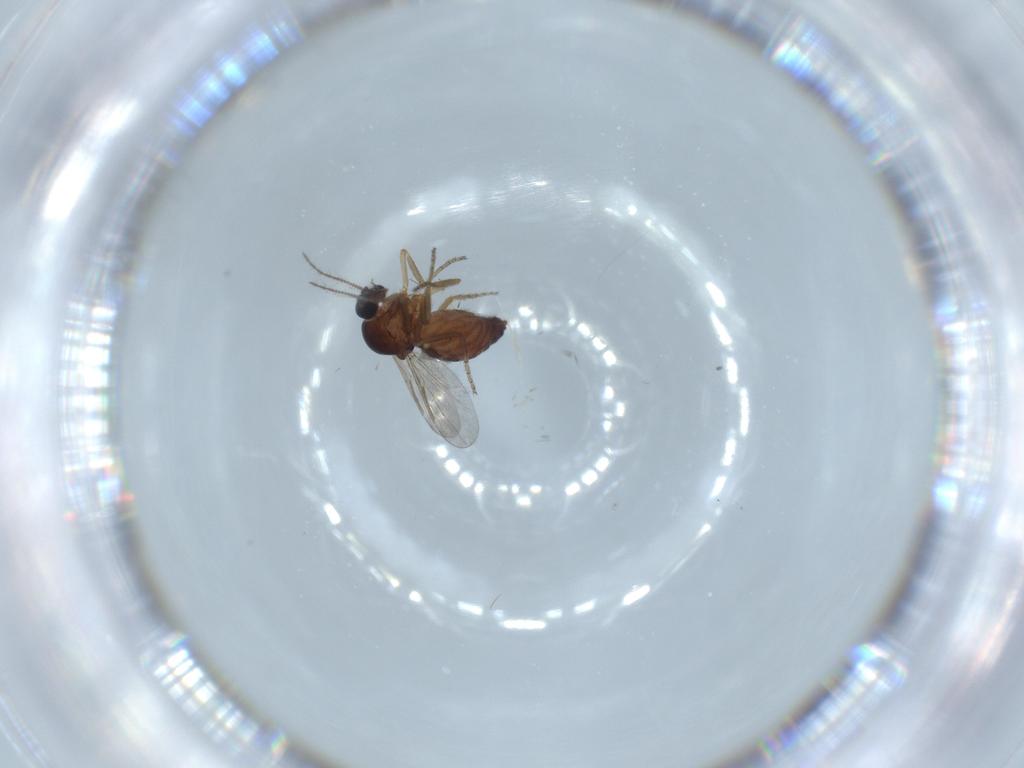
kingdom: Animalia
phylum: Arthropoda
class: Insecta
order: Diptera
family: Ceratopogonidae
